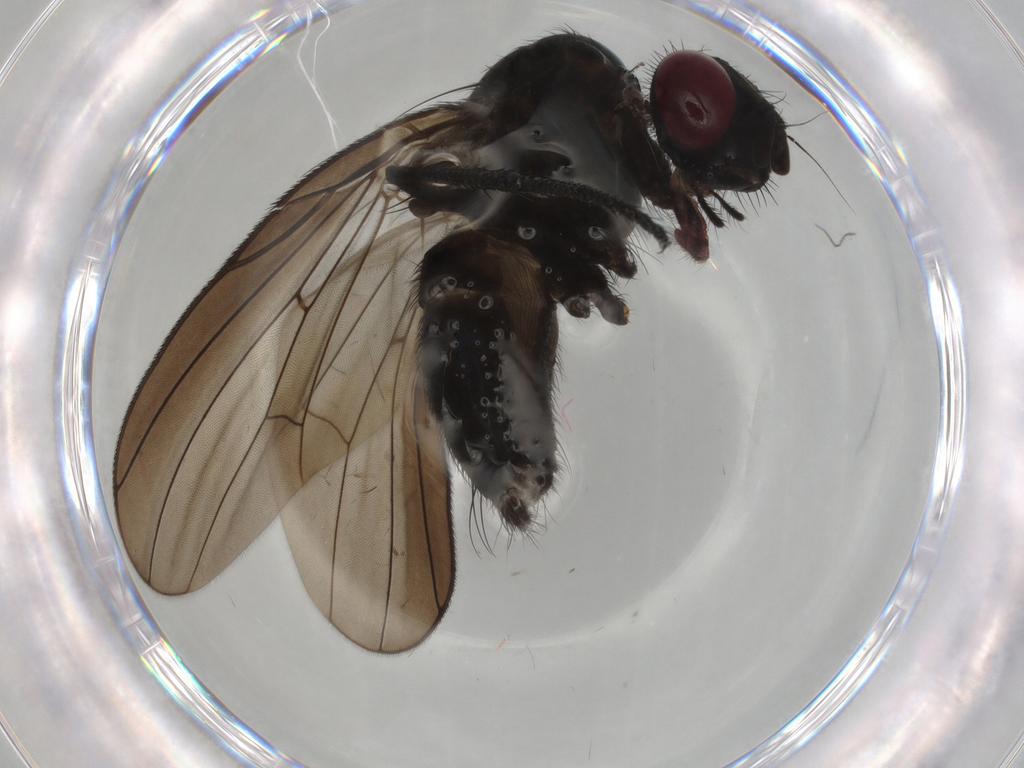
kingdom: Animalia
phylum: Arthropoda
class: Insecta
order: Diptera
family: Fannia
